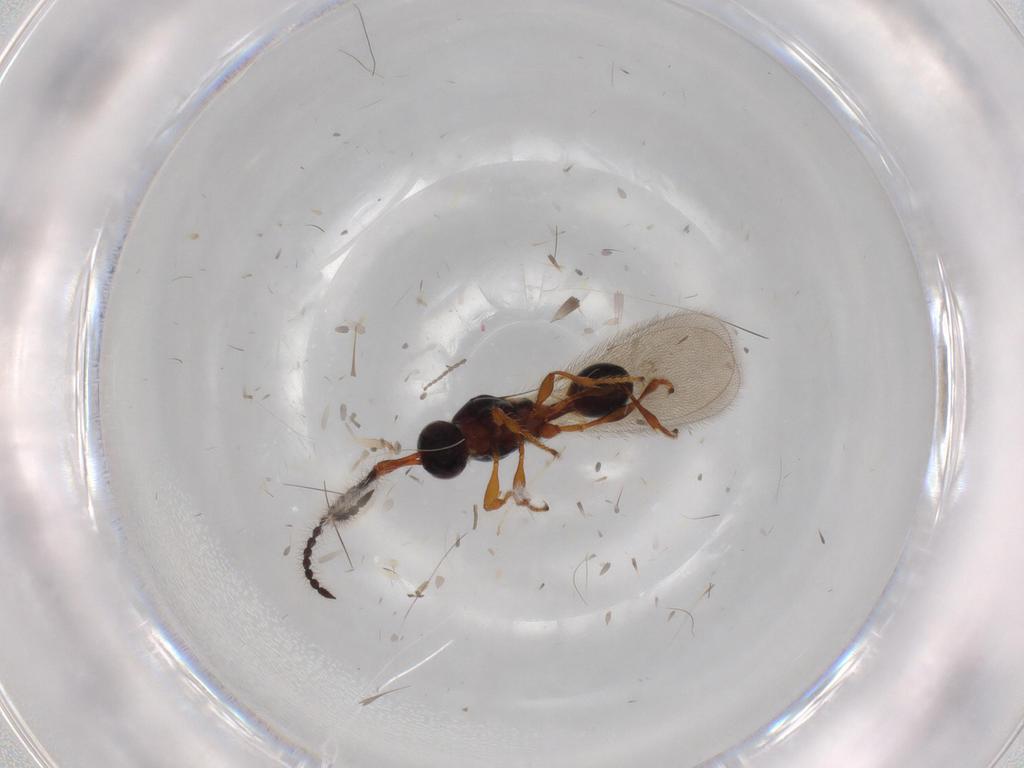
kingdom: Animalia
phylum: Arthropoda
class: Insecta
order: Hymenoptera
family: Diapriidae
